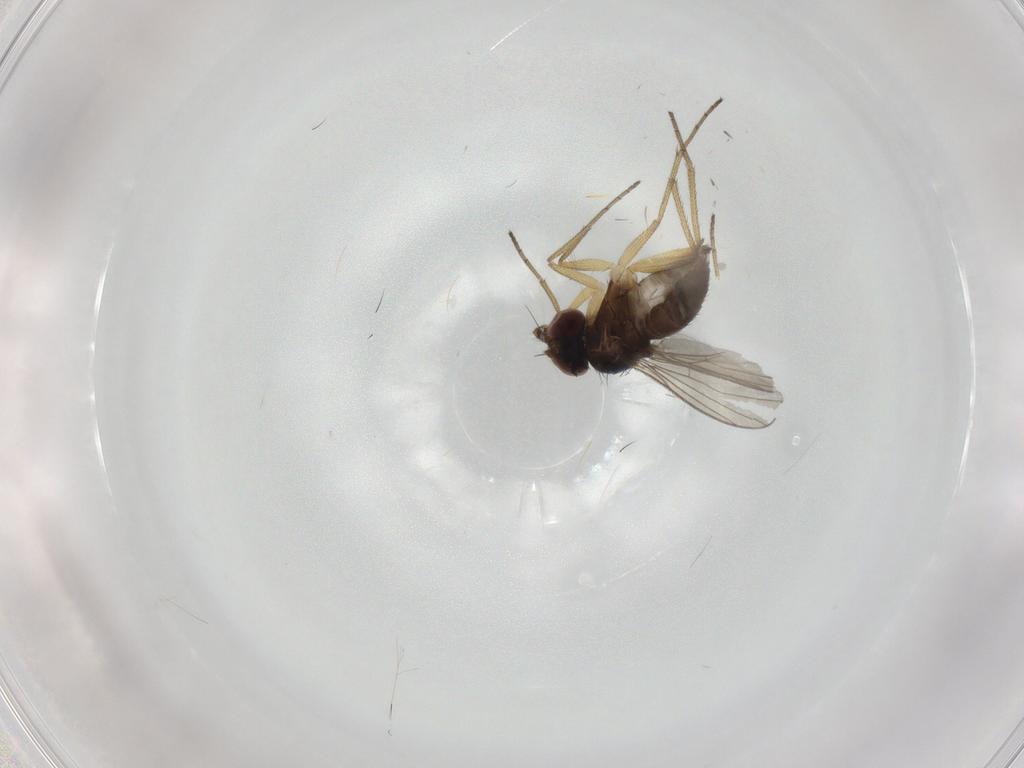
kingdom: Animalia
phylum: Arthropoda
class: Insecta
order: Diptera
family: Dolichopodidae
